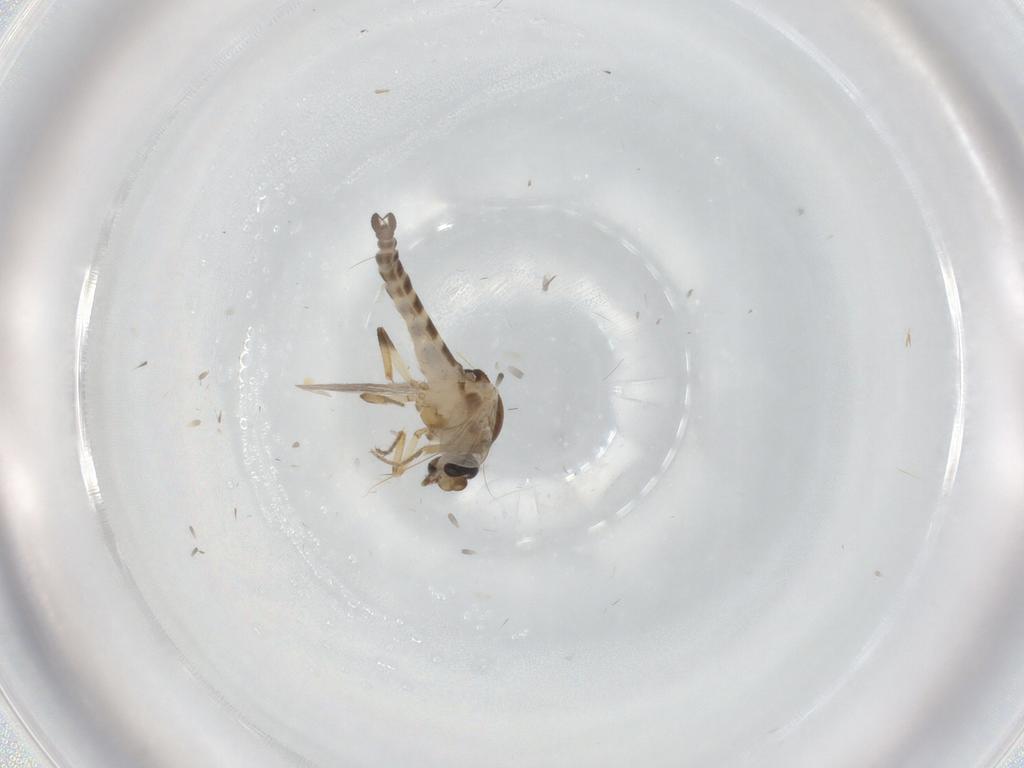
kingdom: Animalia
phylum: Arthropoda
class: Insecta
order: Diptera
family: Ceratopogonidae
